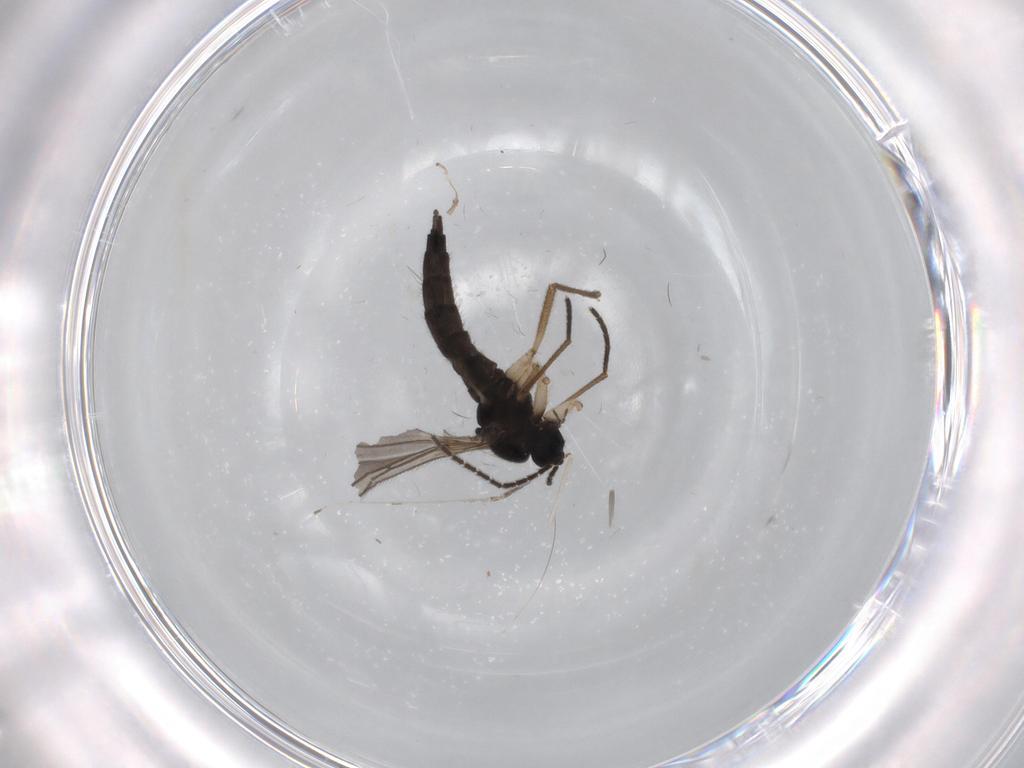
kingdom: Animalia
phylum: Arthropoda
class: Insecta
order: Diptera
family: Sciaridae
